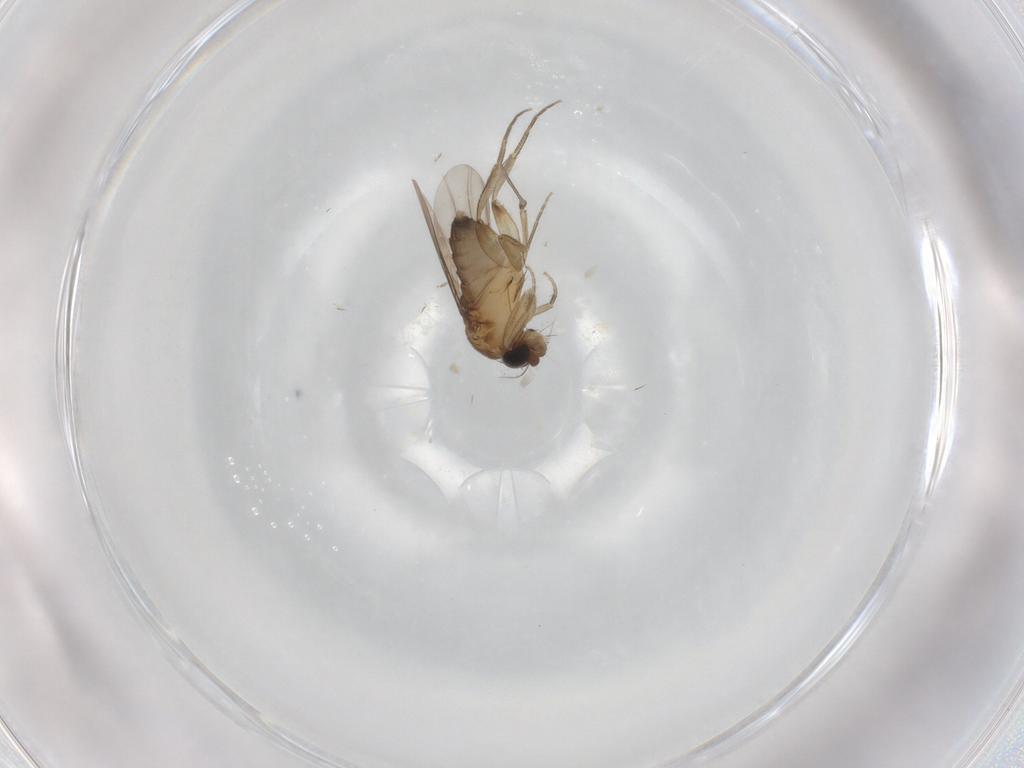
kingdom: Animalia
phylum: Arthropoda
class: Insecta
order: Diptera
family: Phoridae
